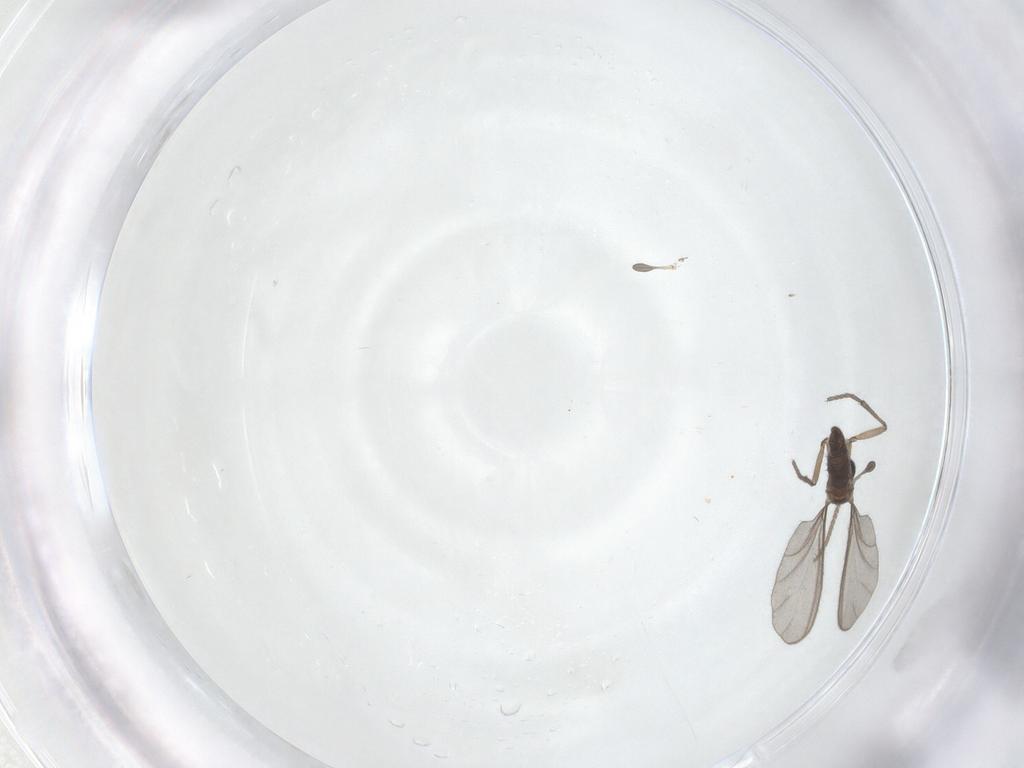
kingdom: Animalia
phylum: Arthropoda
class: Insecta
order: Diptera
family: Sciaridae
